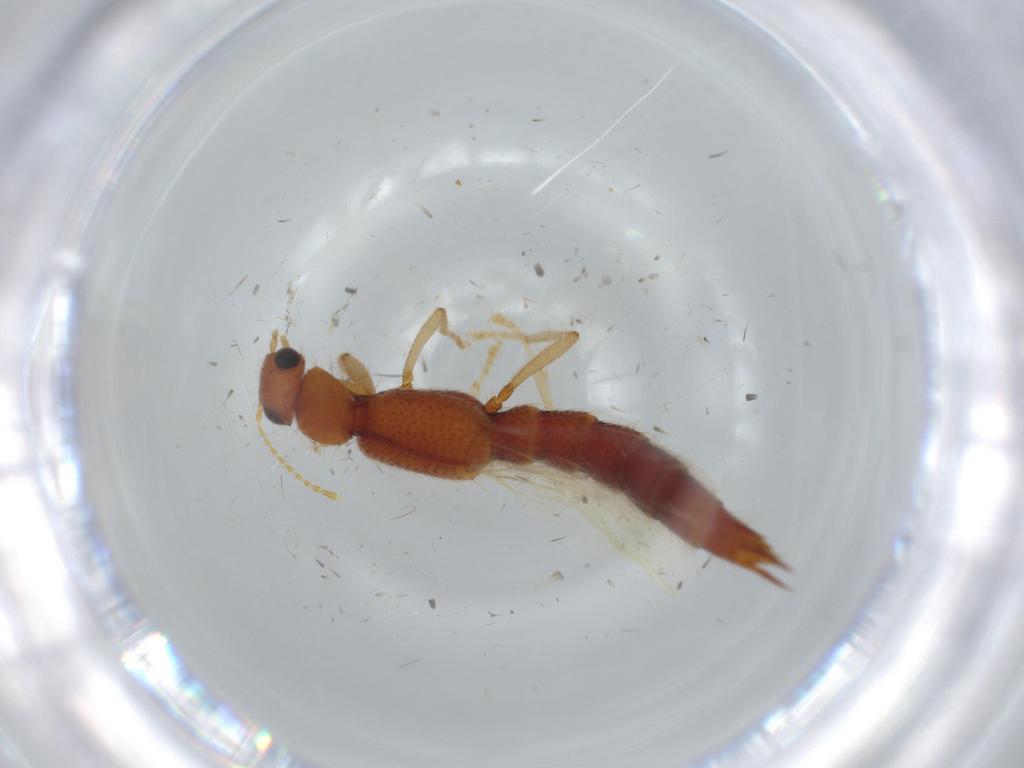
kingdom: Animalia
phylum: Arthropoda
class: Insecta
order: Coleoptera
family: Staphylinidae
